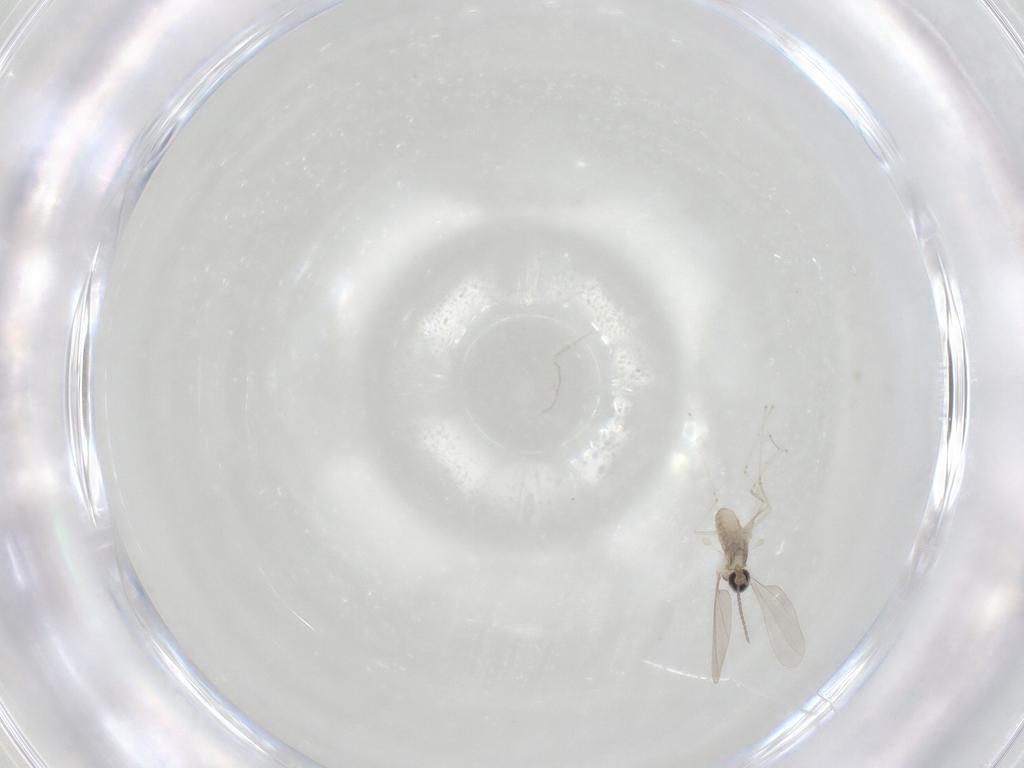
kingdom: Animalia
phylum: Arthropoda
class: Insecta
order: Diptera
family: Cecidomyiidae
